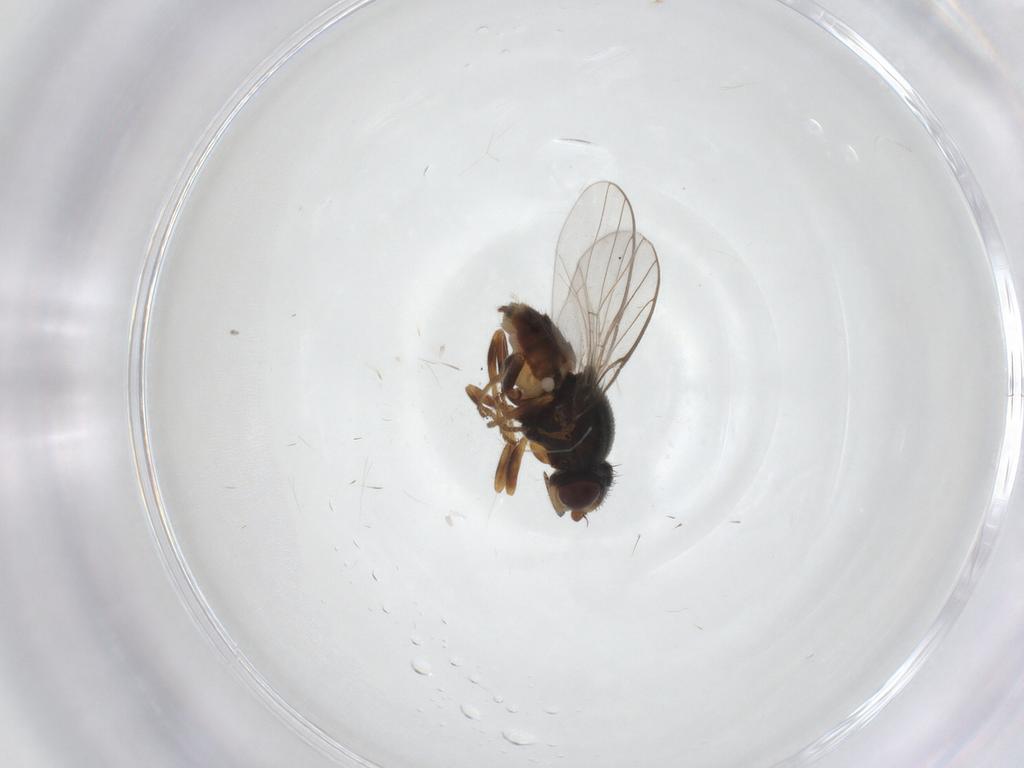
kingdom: Animalia
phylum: Arthropoda
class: Insecta
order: Diptera
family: Chloropidae
